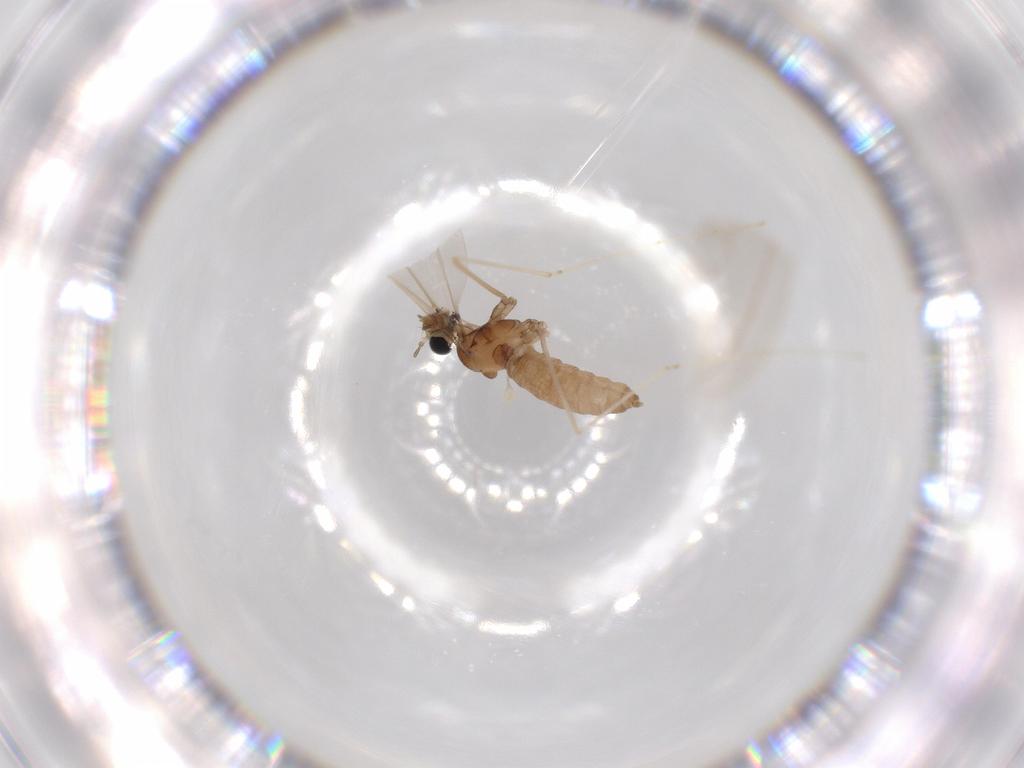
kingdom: Animalia
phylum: Arthropoda
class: Insecta
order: Diptera
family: Cecidomyiidae
